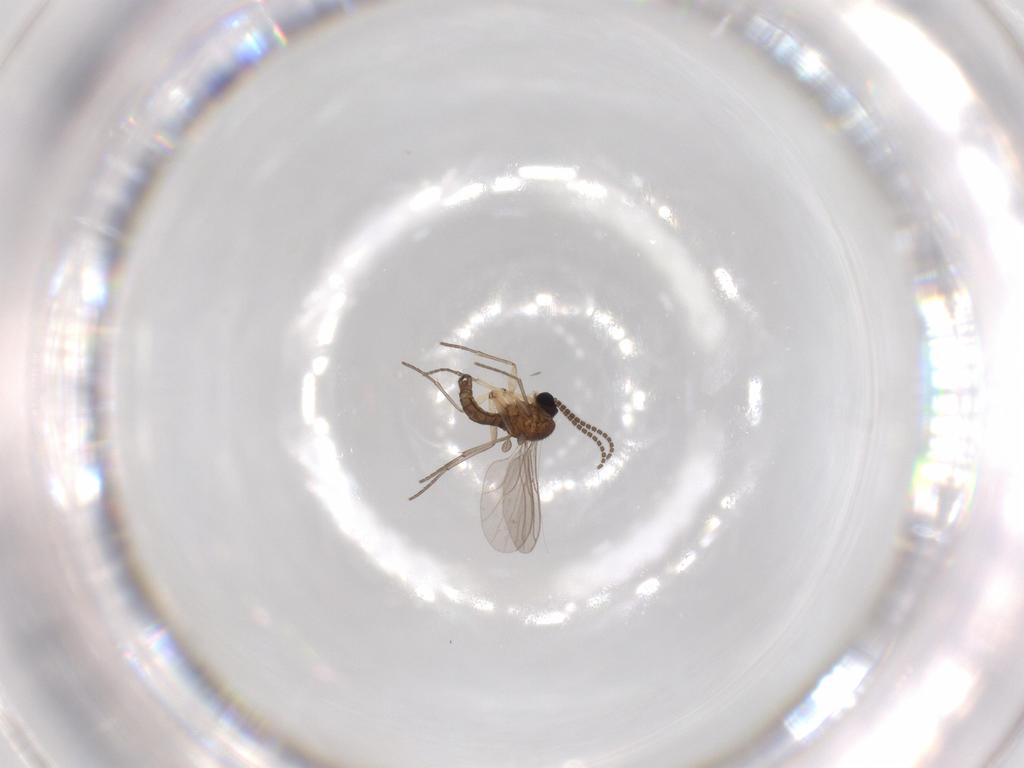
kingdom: Animalia
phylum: Arthropoda
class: Insecta
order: Diptera
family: Sciaridae
